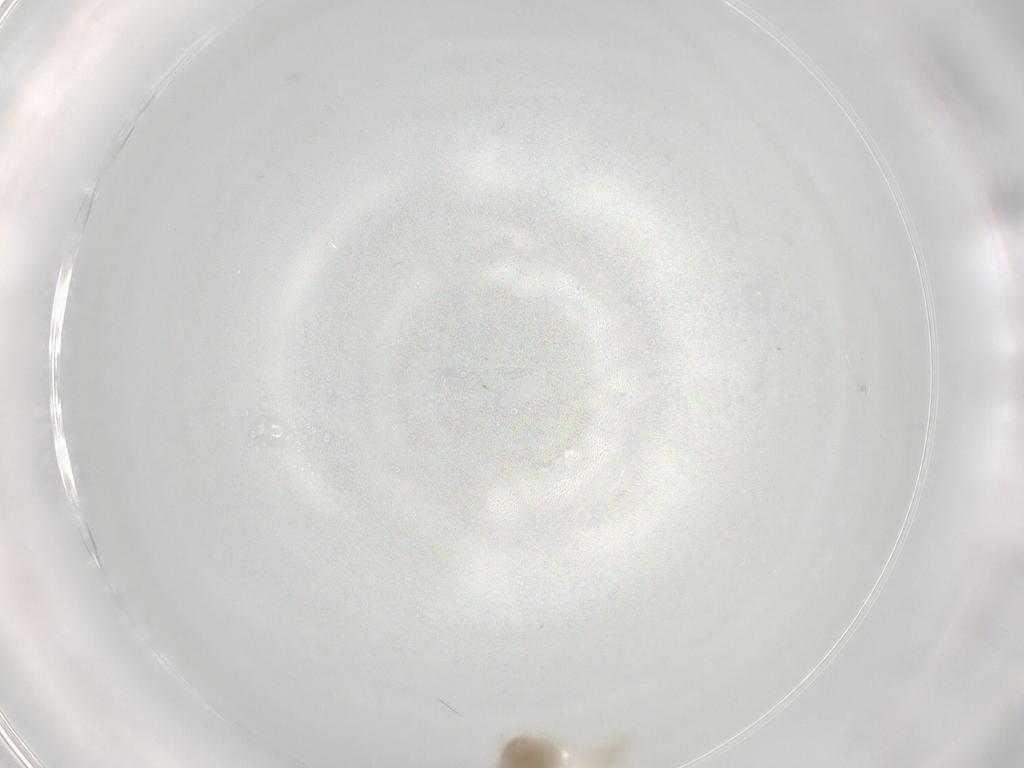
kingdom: Animalia
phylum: Arthropoda
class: Insecta
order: Diptera
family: Chironomidae
